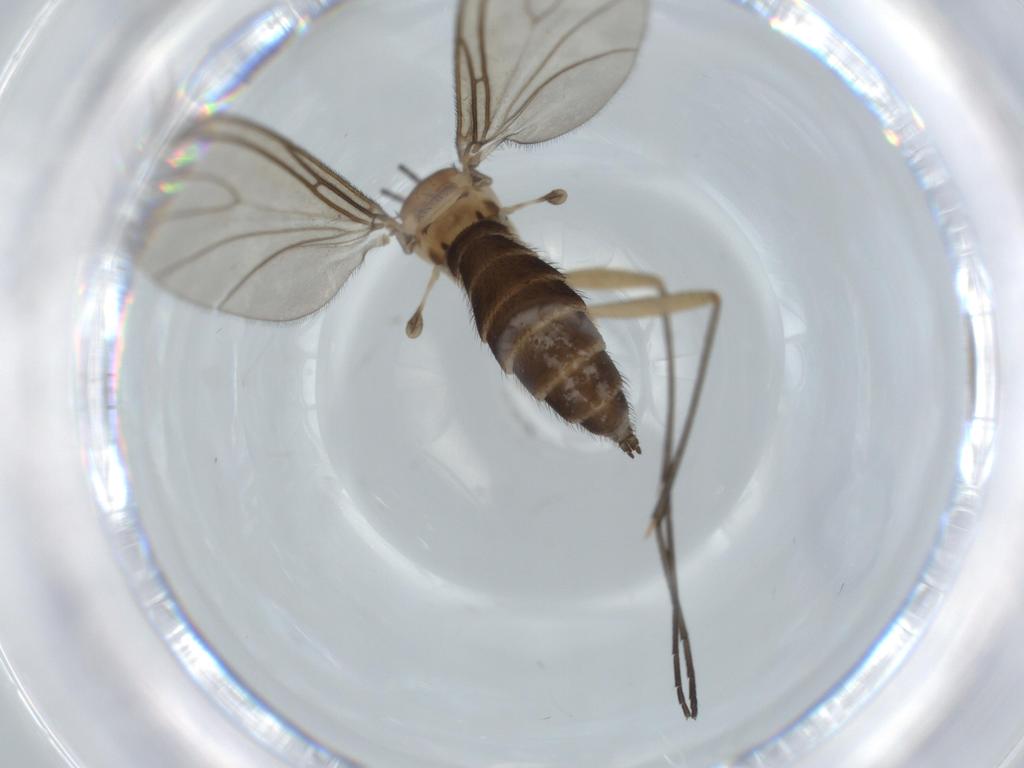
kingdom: Animalia
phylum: Arthropoda
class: Insecta
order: Diptera
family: Sciaridae
